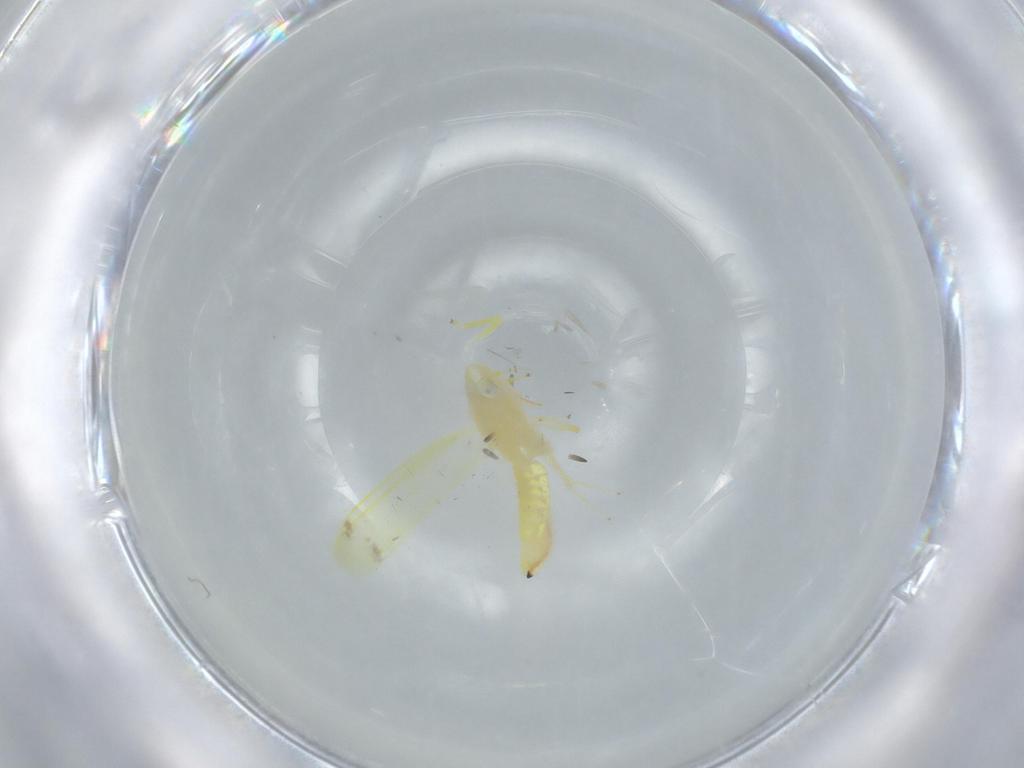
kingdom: Animalia
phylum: Arthropoda
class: Insecta
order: Hemiptera
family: Cicadellidae
